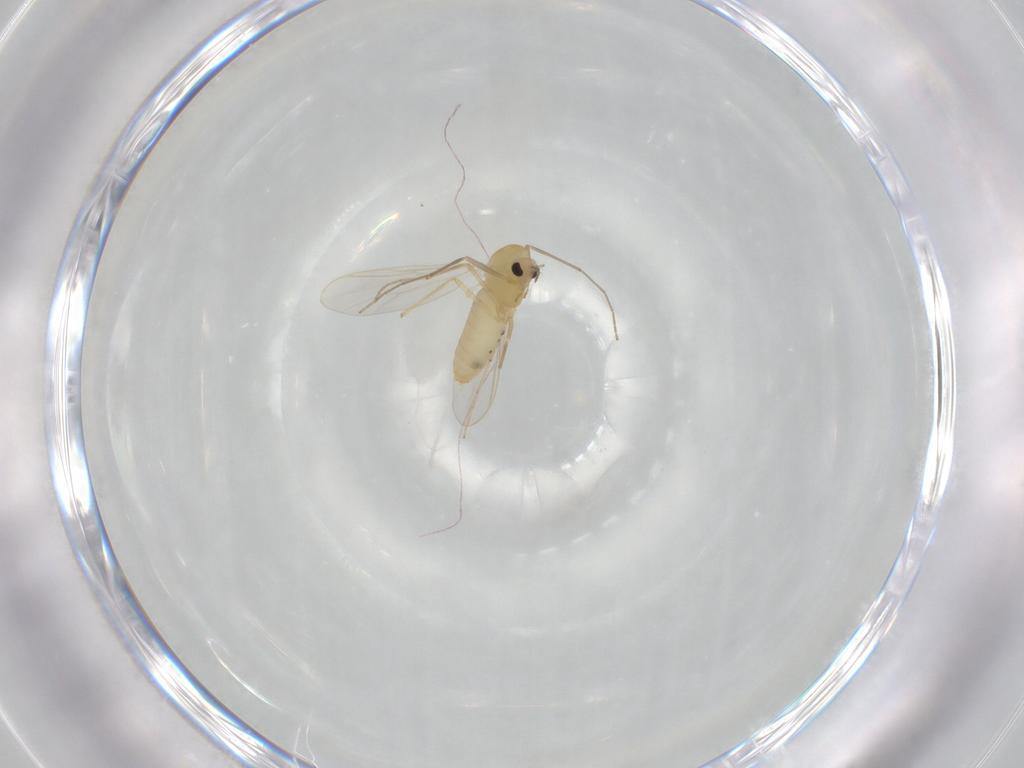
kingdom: Animalia
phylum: Arthropoda
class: Insecta
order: Diptera
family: Chironomidae
